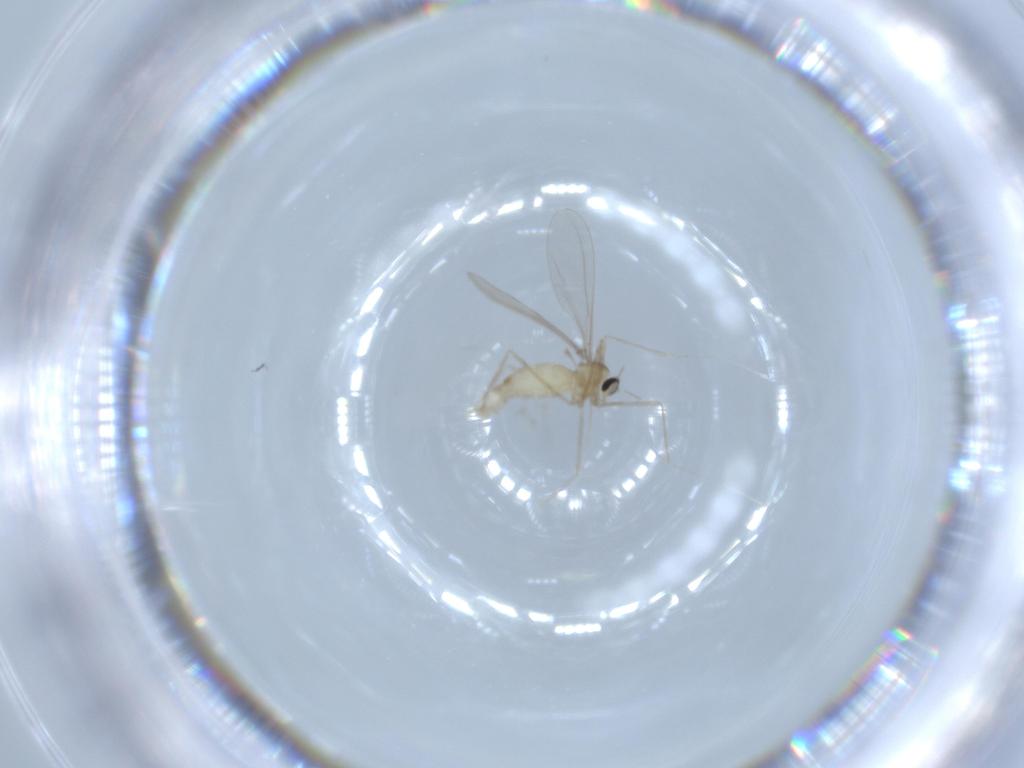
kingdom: Animalia
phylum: Arthropoda
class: Insecta
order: Diptera
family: Cecidomyiidae
